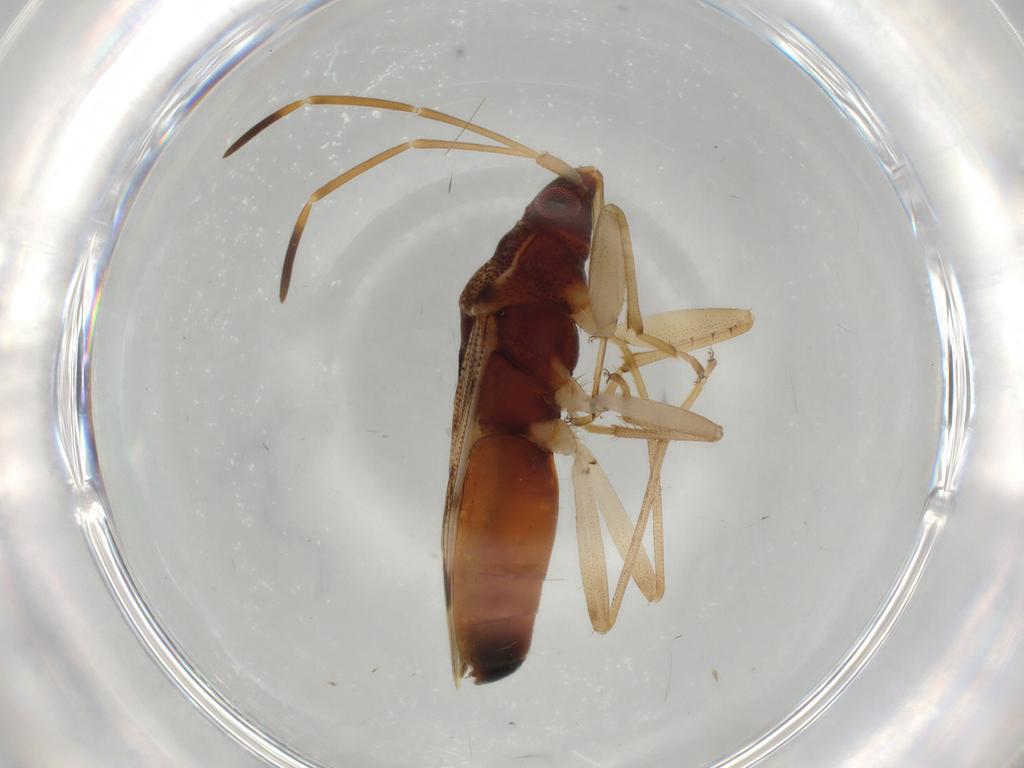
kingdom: Animalia
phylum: Arthropoda
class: Insecta
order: Hemiptera
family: Rhyparochromidae
